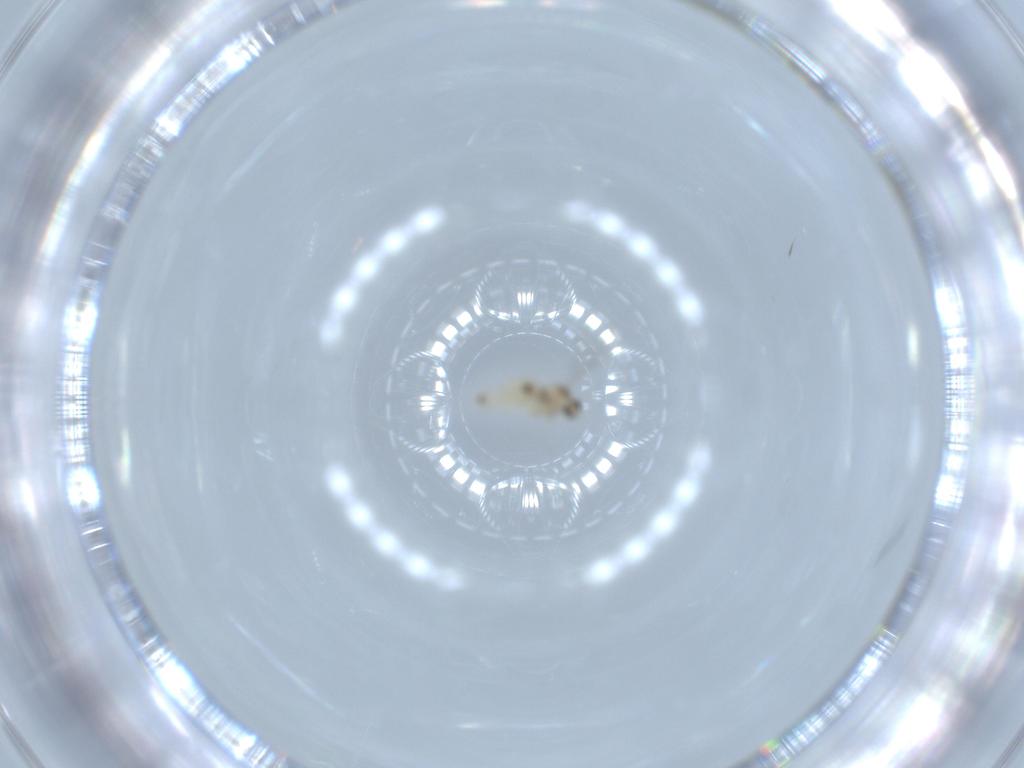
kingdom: Animalia
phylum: Arthropoda
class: Insecta
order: Diptera
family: Cecidomyiidae
